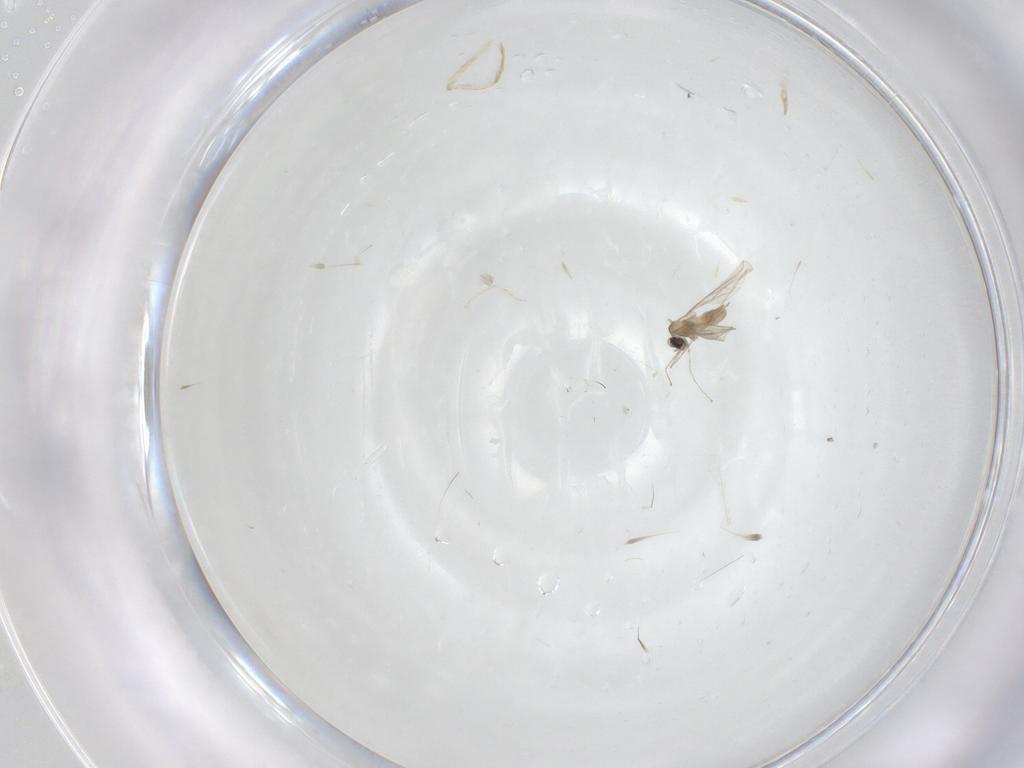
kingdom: Animalia
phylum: Arthropoda
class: Insecta
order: Diptera
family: Cecidomyiidae
